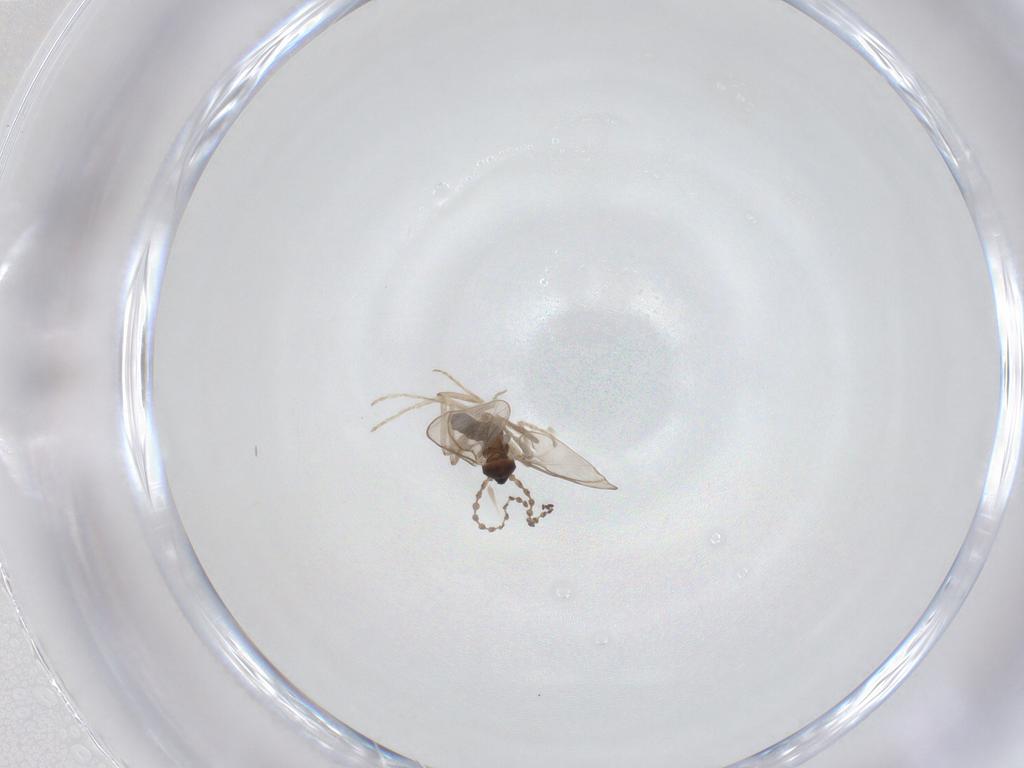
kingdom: Animalia
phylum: Arthropoda
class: Insecta
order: Diptera
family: Cecidomyiidae
